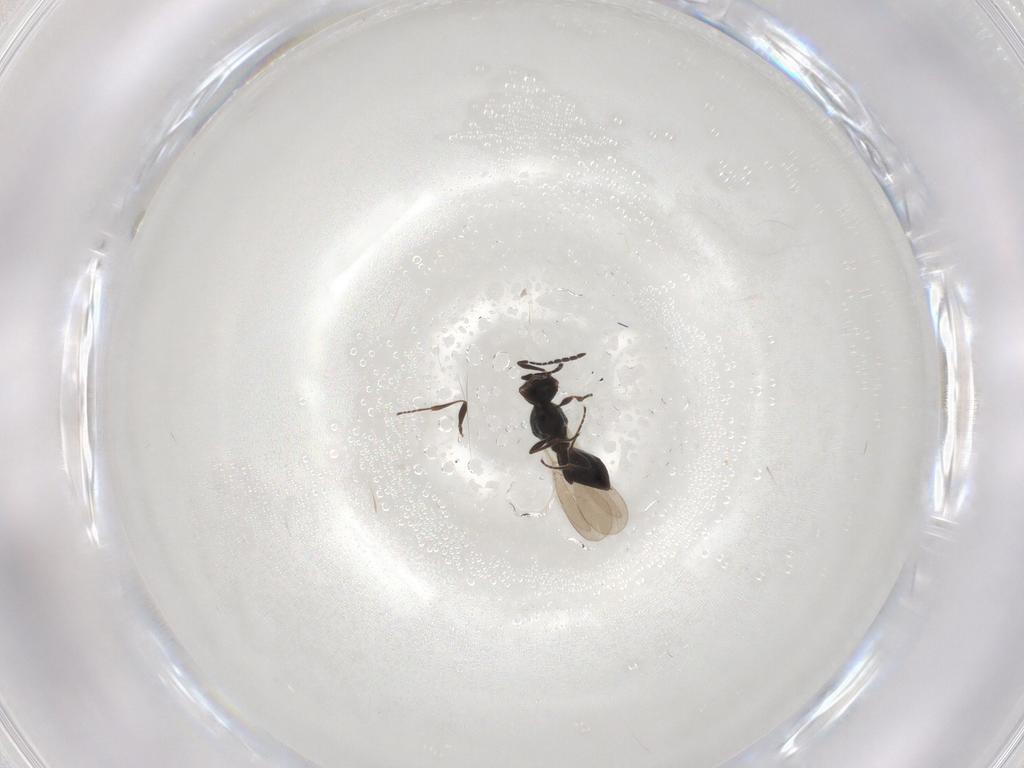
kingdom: Animalia
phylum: Arthropoda
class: Insecta
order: Hymenoptera
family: Platygastridae
